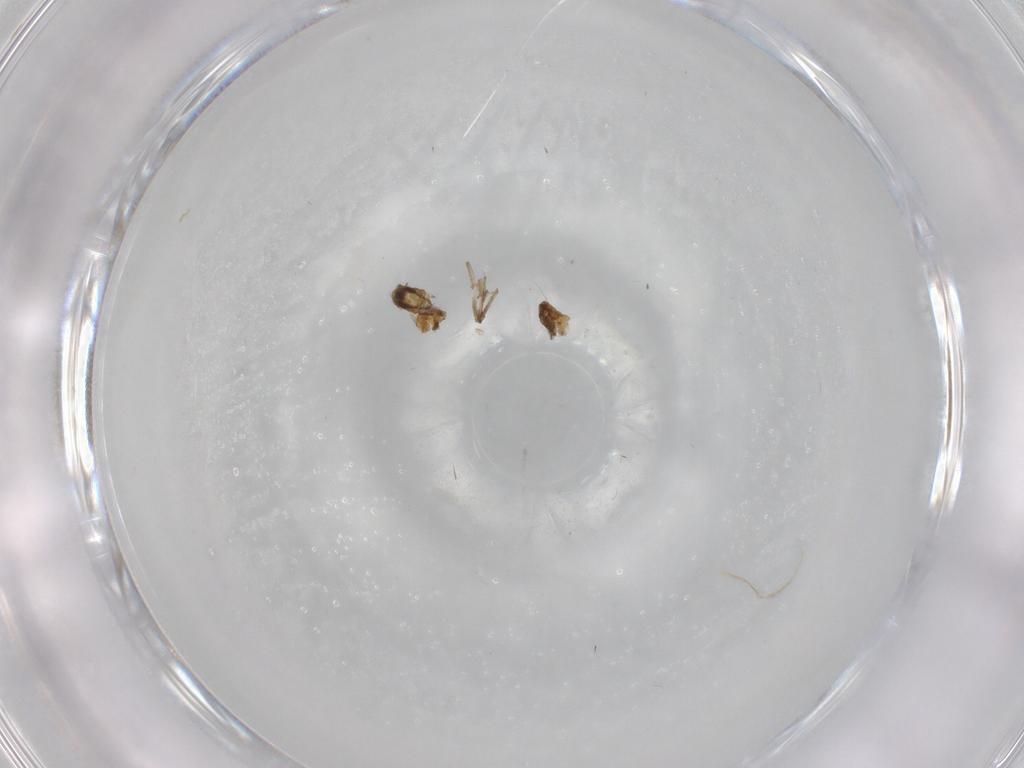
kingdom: Animalia
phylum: Arthropoda
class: Insecta
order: Diptera
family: Chironomidae
